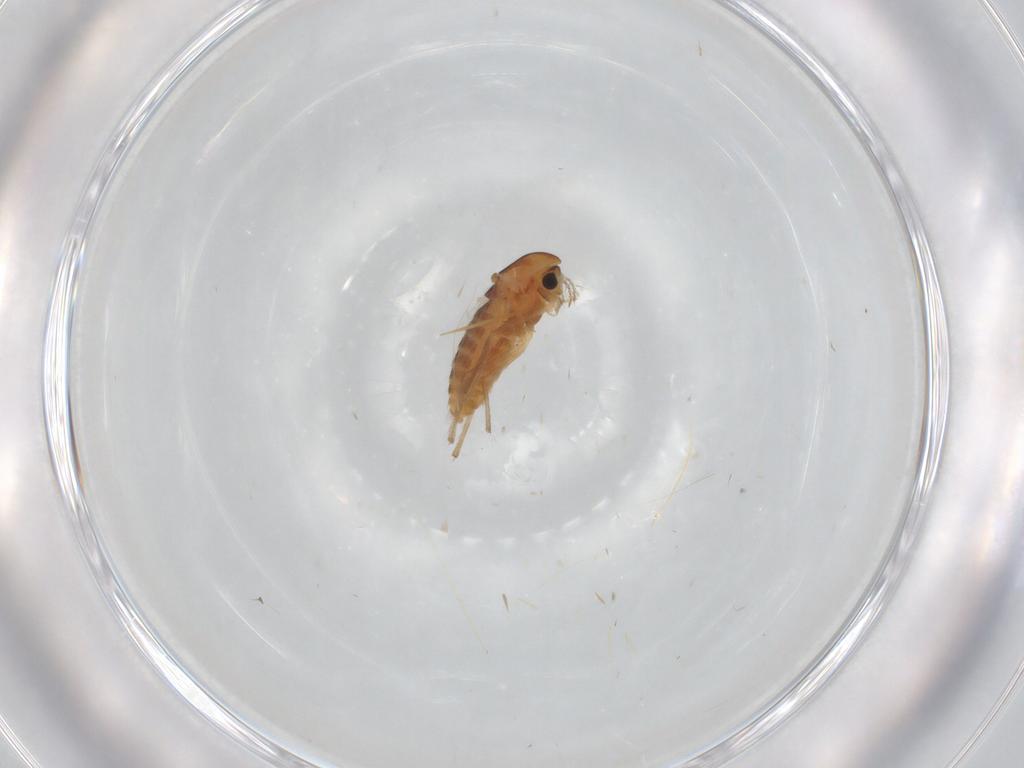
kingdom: Animalia
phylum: Arthropoda
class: Insecta
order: Diptera
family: Chironomidae
